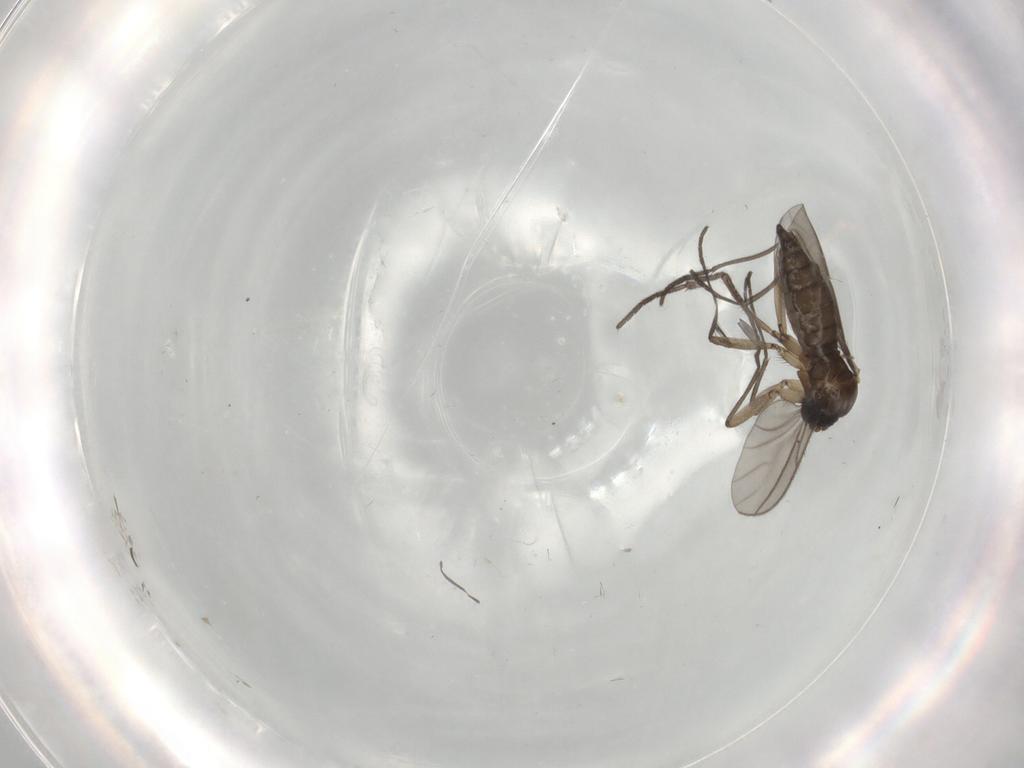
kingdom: Animalia
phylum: Arthropoda
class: Insecta
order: Diptera
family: Sciaridae
